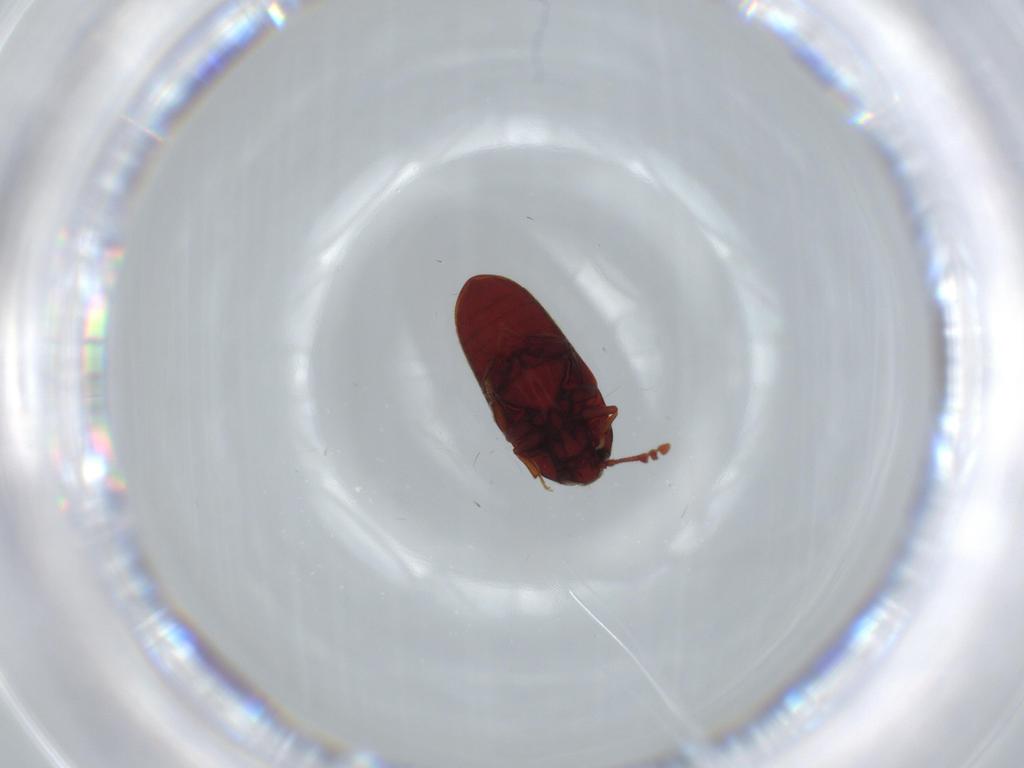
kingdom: Animalia
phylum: Arthropoda
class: Insecta
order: Coleoptera
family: Throscidae
